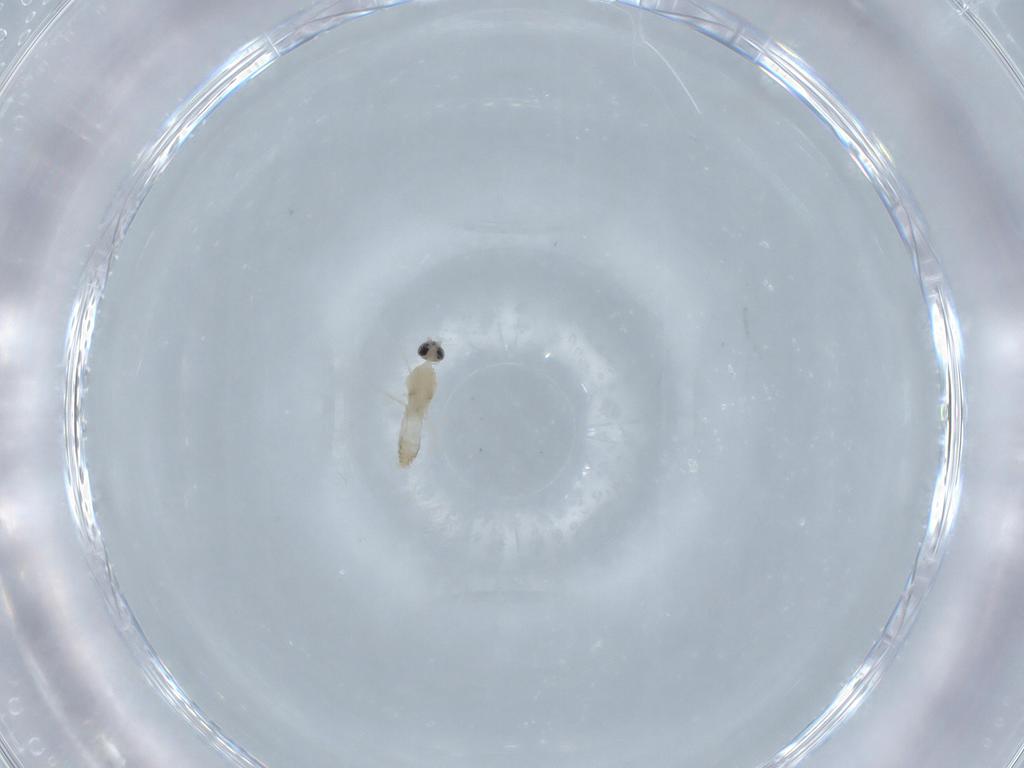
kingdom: Animalia
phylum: Arthropoda
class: Insecta
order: Diptera
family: Cecidomyiidae
